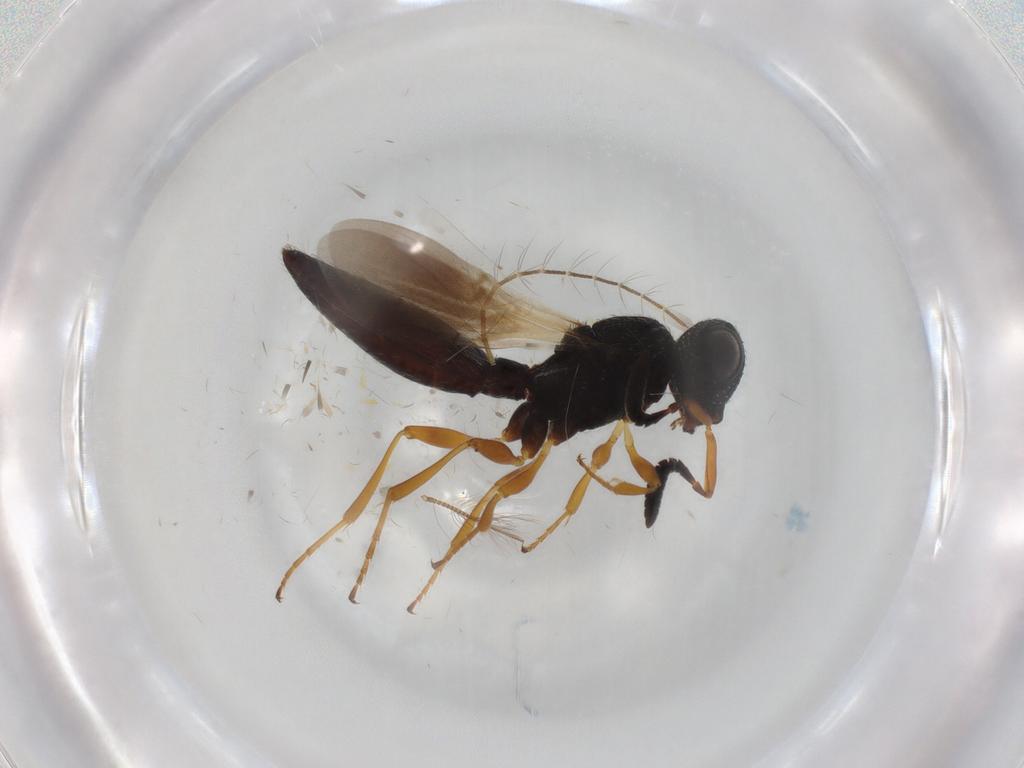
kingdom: Animalia
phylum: Arthropoda
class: Insecta
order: Hymenoptera
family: Scelionidae
